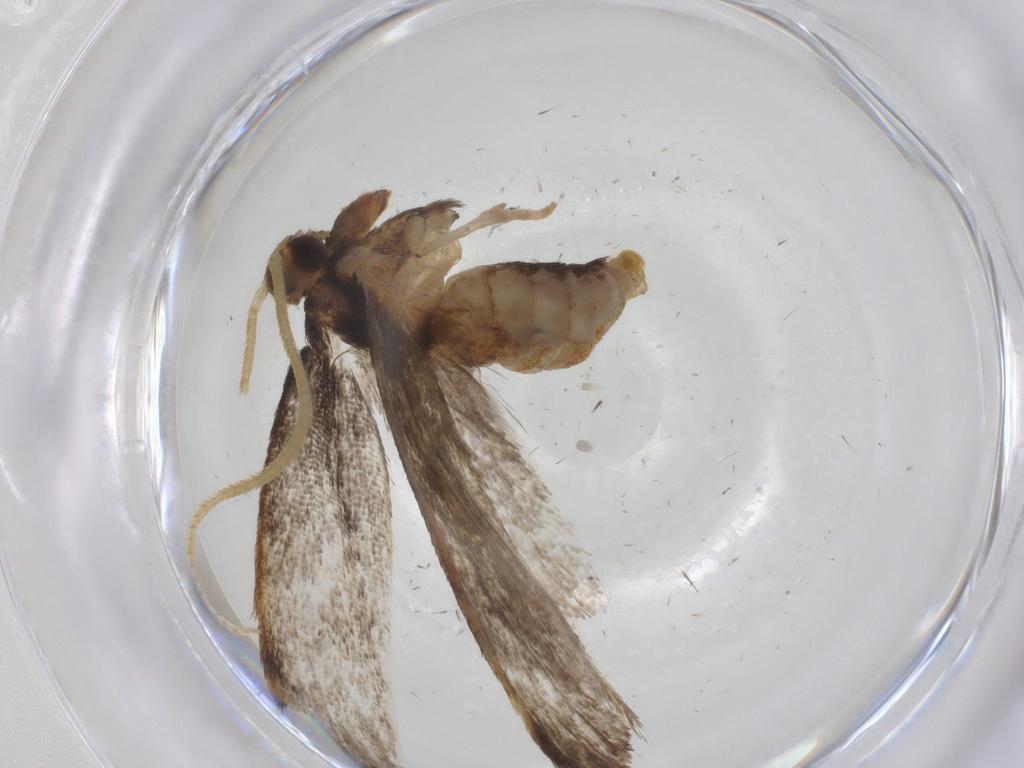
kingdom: Animalia
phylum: Arthropoda
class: Insecta
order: Lepidoptera
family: Lecithoceridae
